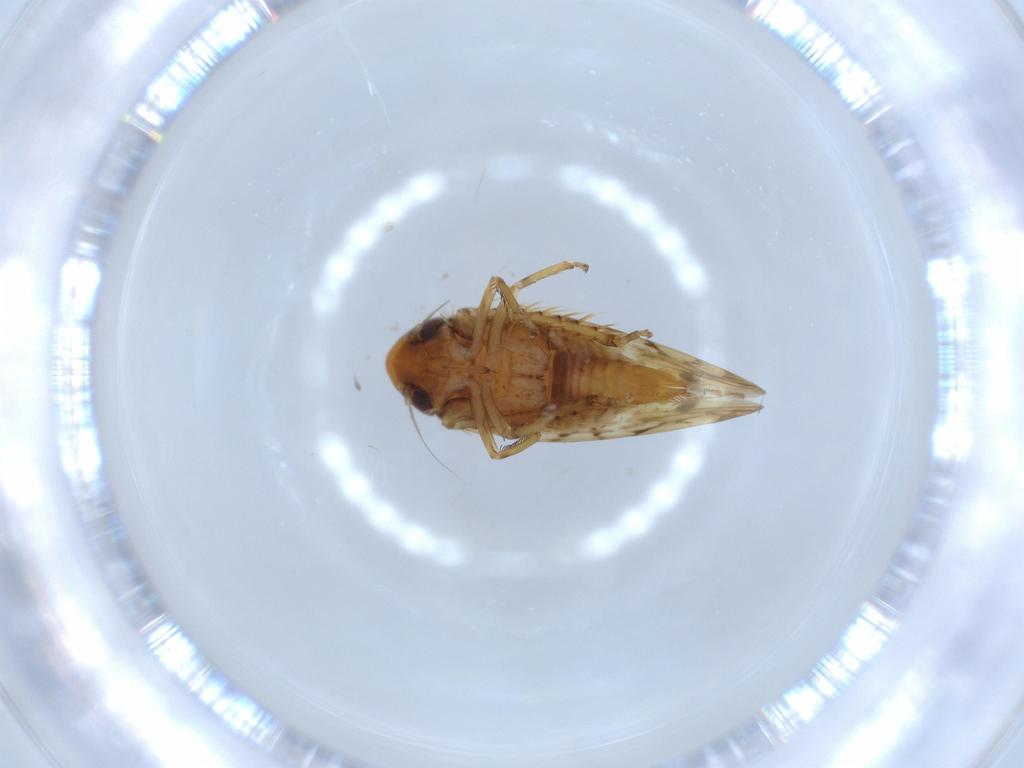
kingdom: Animalia
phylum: Arthropoda
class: Insecta
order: Hemiptera
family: Cicadellidae
